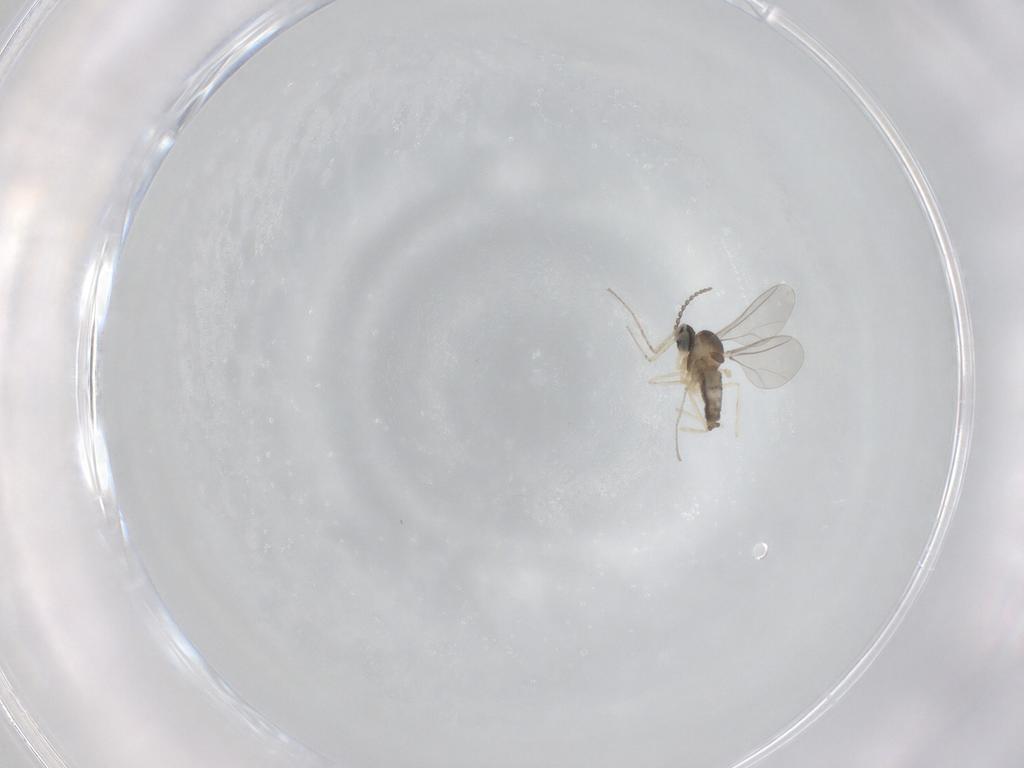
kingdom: Animalia
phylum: Arthropoda
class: Insecta
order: Diptera
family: Cecidomyiidae
